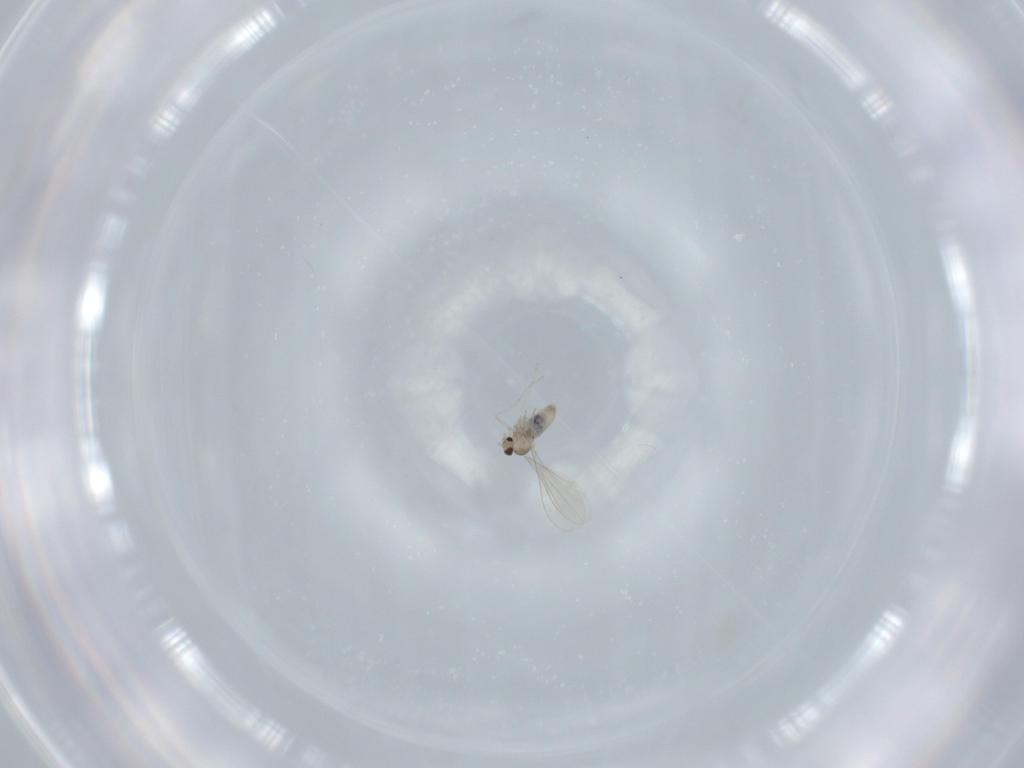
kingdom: Animalia
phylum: Arthropoda
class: Insecta
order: Diptera
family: Cecidomyiidae
